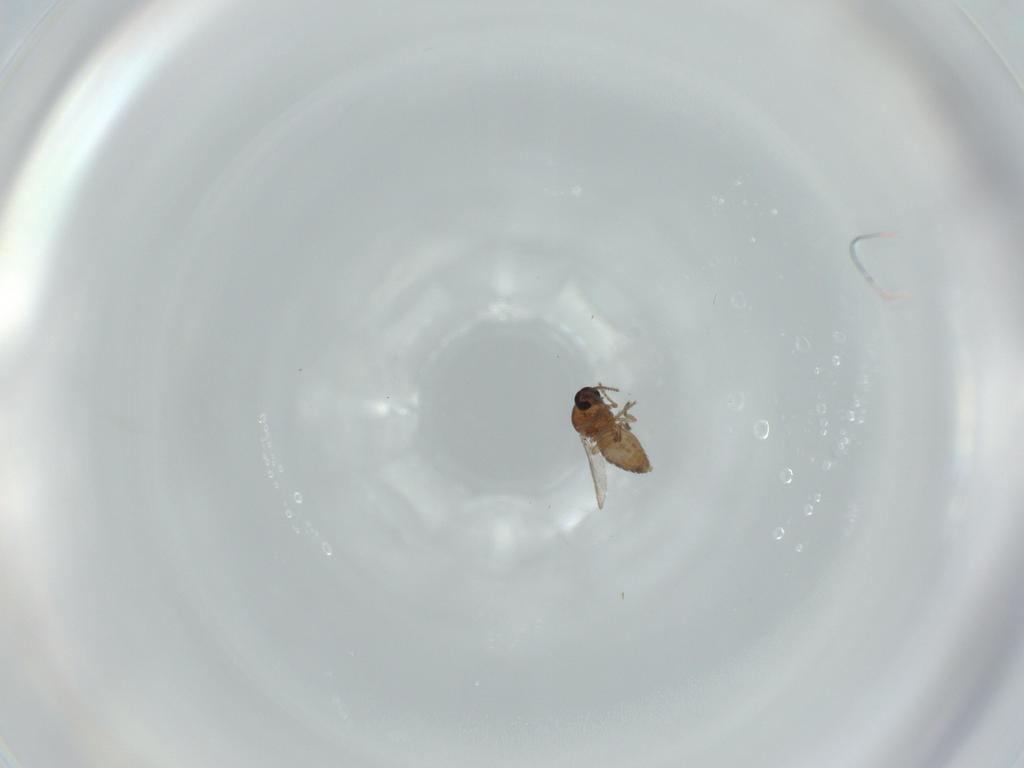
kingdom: Animalia
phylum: Arthropoda
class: Insecta
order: Diptera
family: Ceratopogonidae
